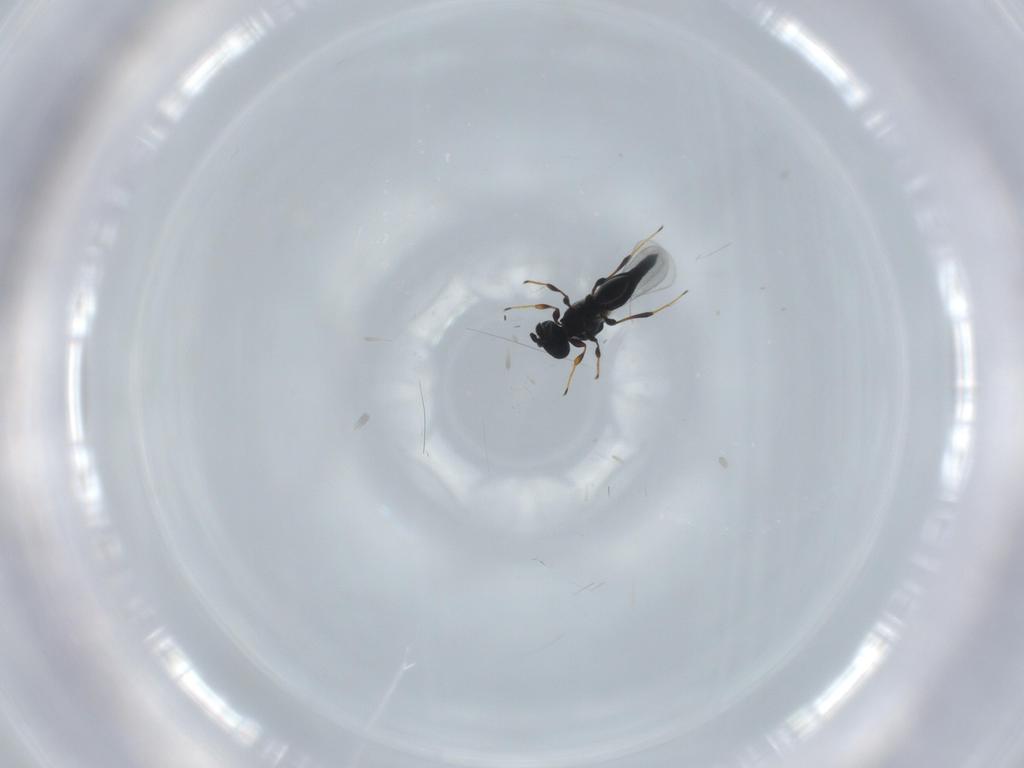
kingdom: Animalia
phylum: Arthropoda
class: Insecta
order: Hymenoptera
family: Platygastridae
